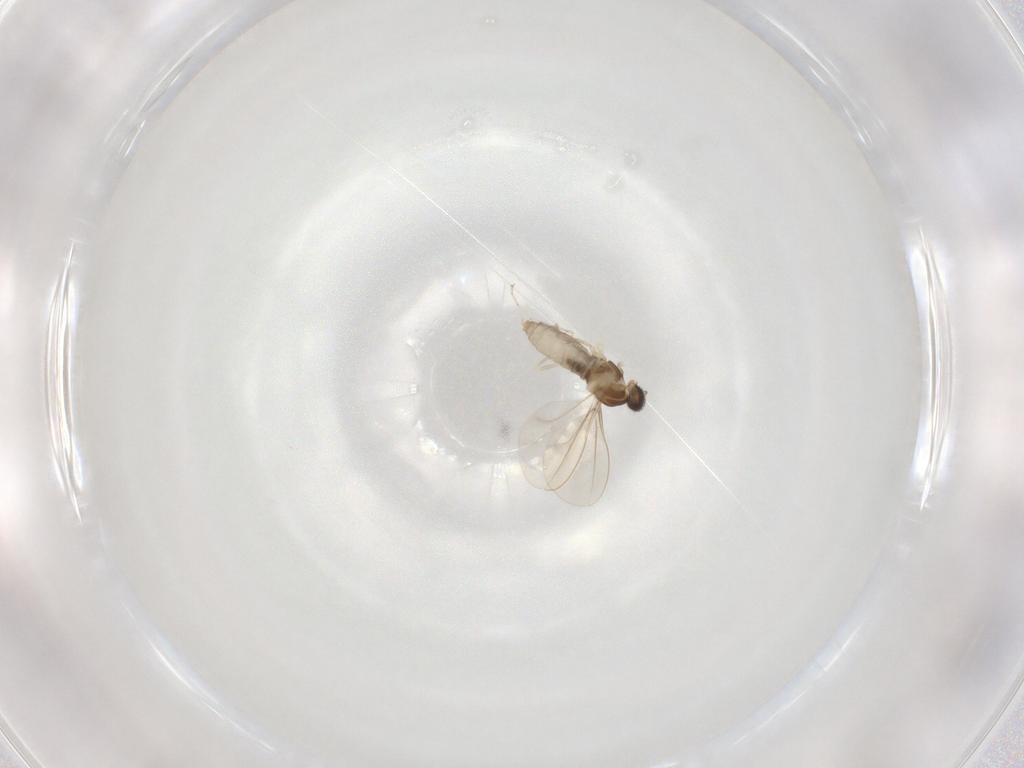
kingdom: Animalia
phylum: Arthropoda
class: Insecta
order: Diptera
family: Cecidomyiidae
